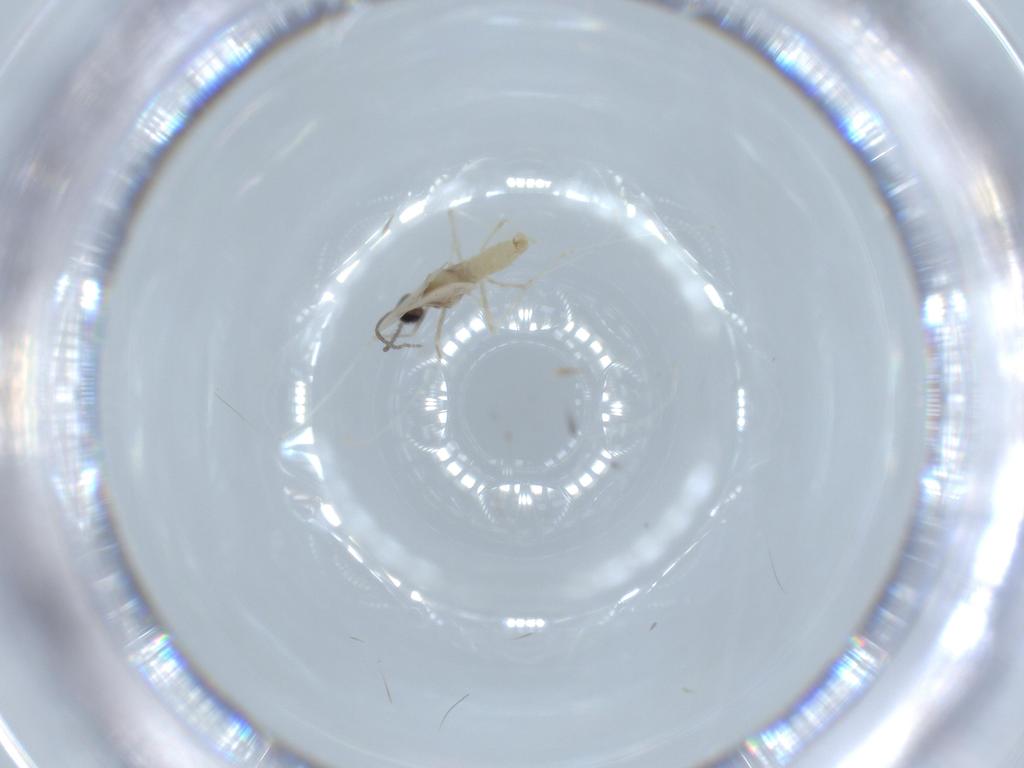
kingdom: Animalia
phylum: Arthropoda
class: Insecta
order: Diptera
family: Cecidomyiidae
